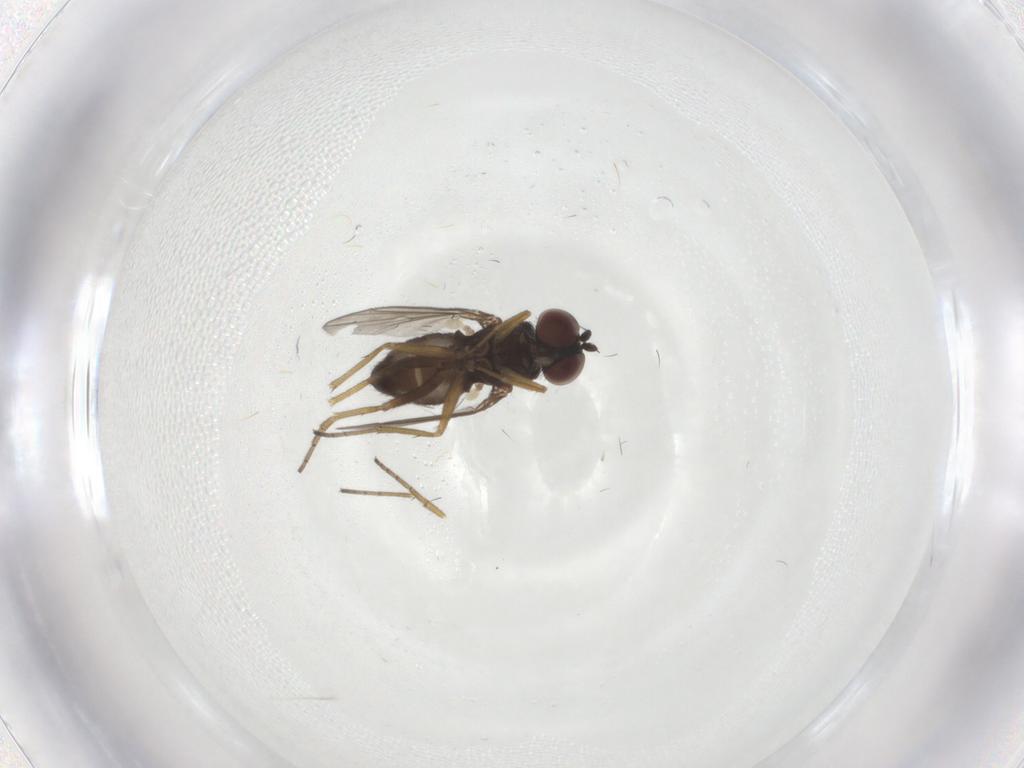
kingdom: Animalia
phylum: Arthropoda
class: Insecta
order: Diptera
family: Dolichopodidae
